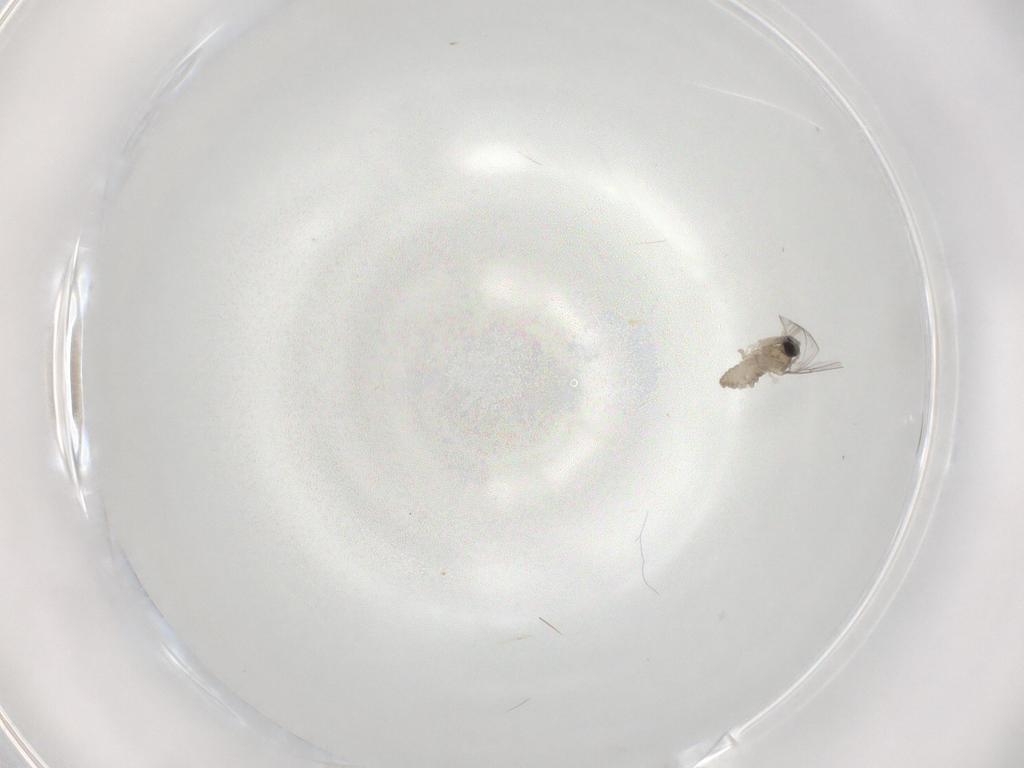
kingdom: Animalia
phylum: Arthropoda
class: Insecta
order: Diptera
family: Cecidomyiidae
